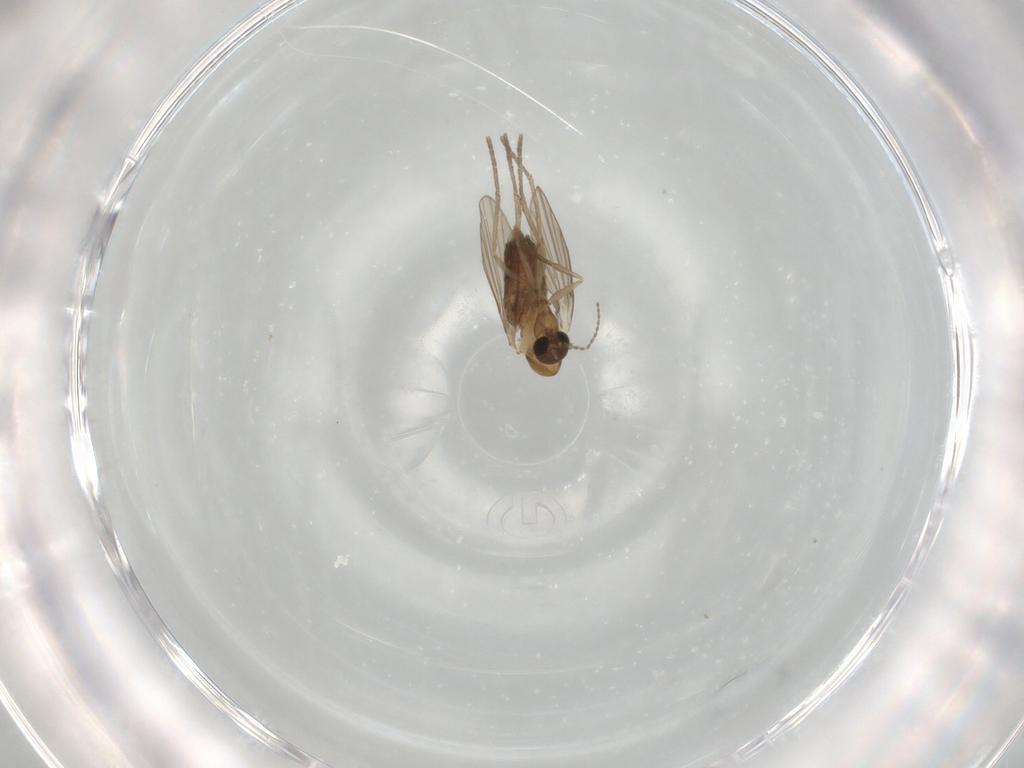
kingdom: Animalia
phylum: Arthropoda
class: Insecta
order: Diptera
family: Psychodidae
